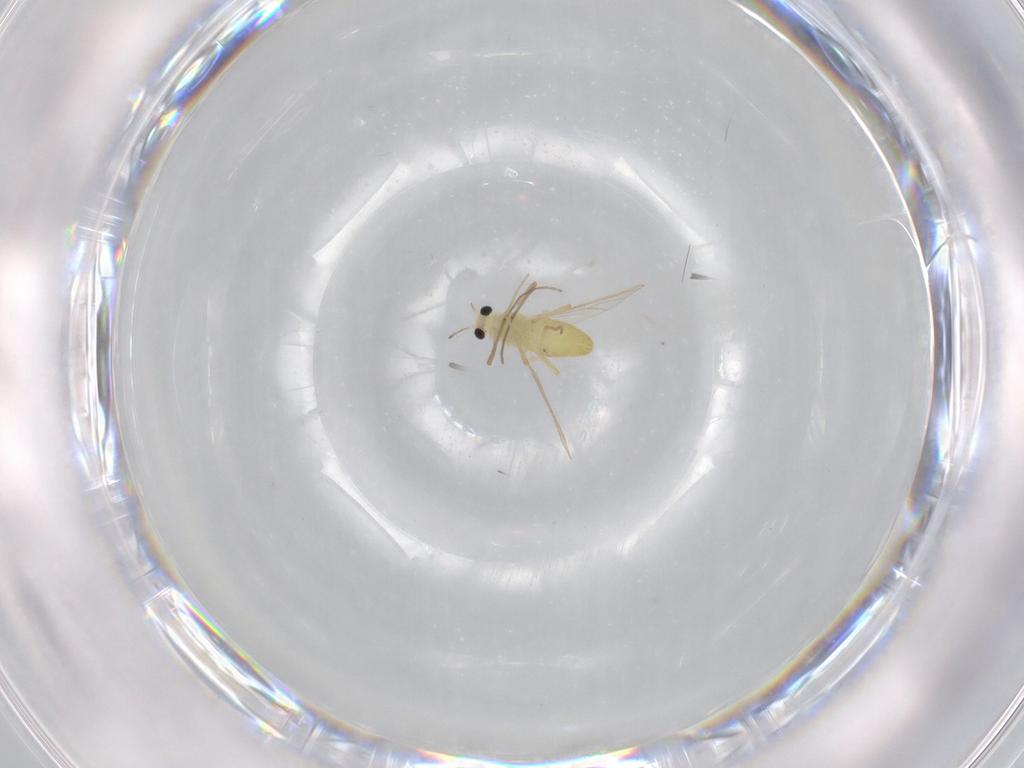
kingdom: Animalia
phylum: Arthropoda
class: Insecta
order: Diptera
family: Chironomidae
